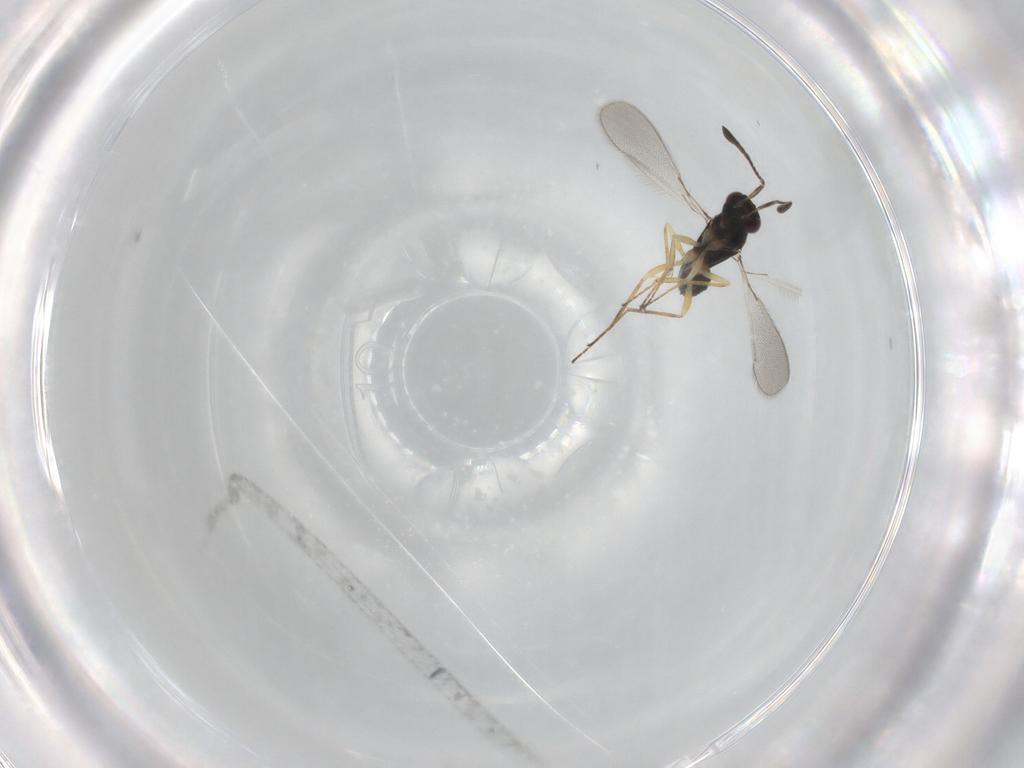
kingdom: Animalia
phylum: Arthropoda
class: Insecta
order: Hymenoptera
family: Mymaridae
